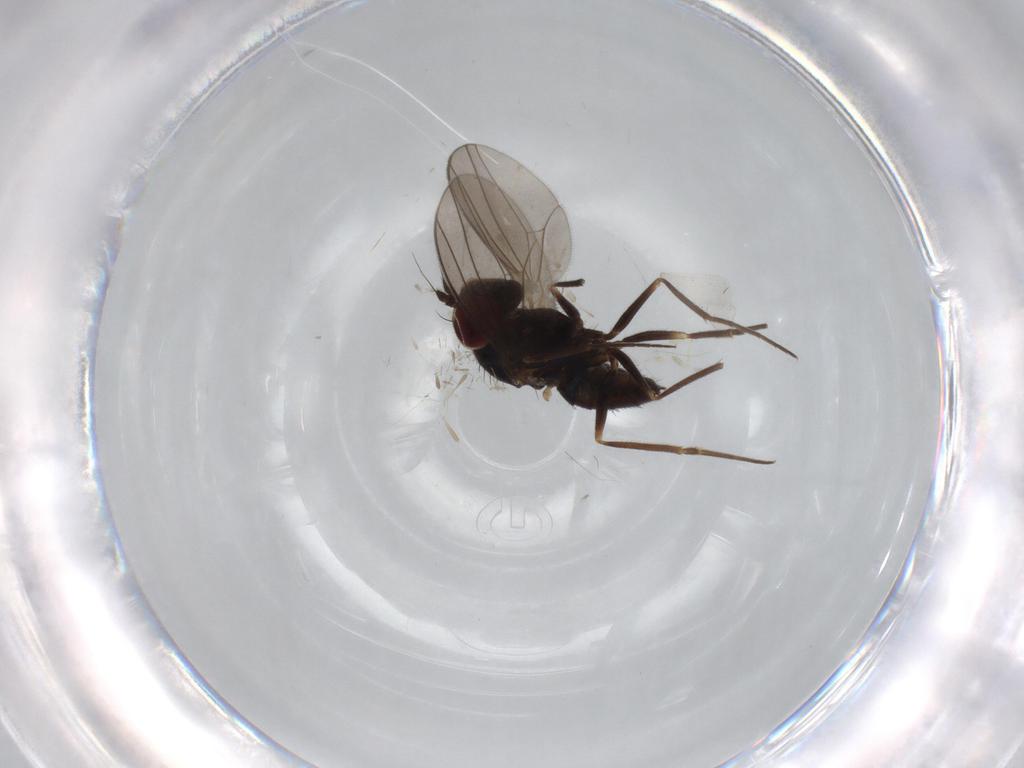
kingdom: Animalia
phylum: Arthropoda
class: Insecta
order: Diptera
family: Dolichopodidae
